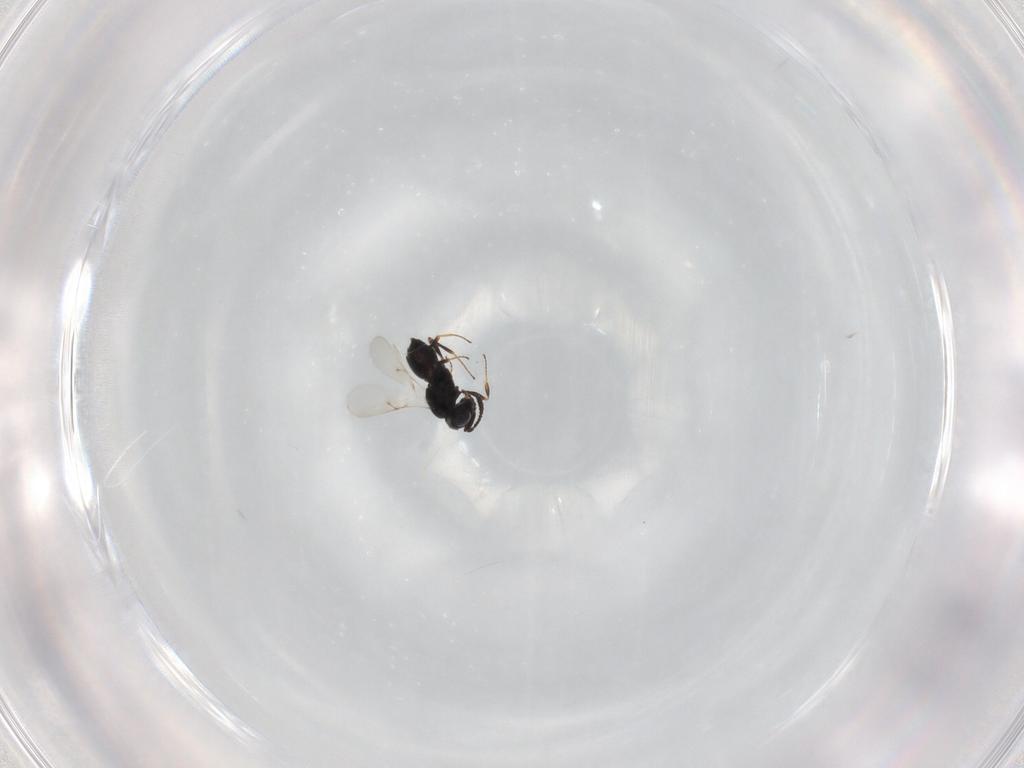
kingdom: Animalia
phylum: Arthropoda
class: Insecta
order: Hymenoptera
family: Scelionidae
